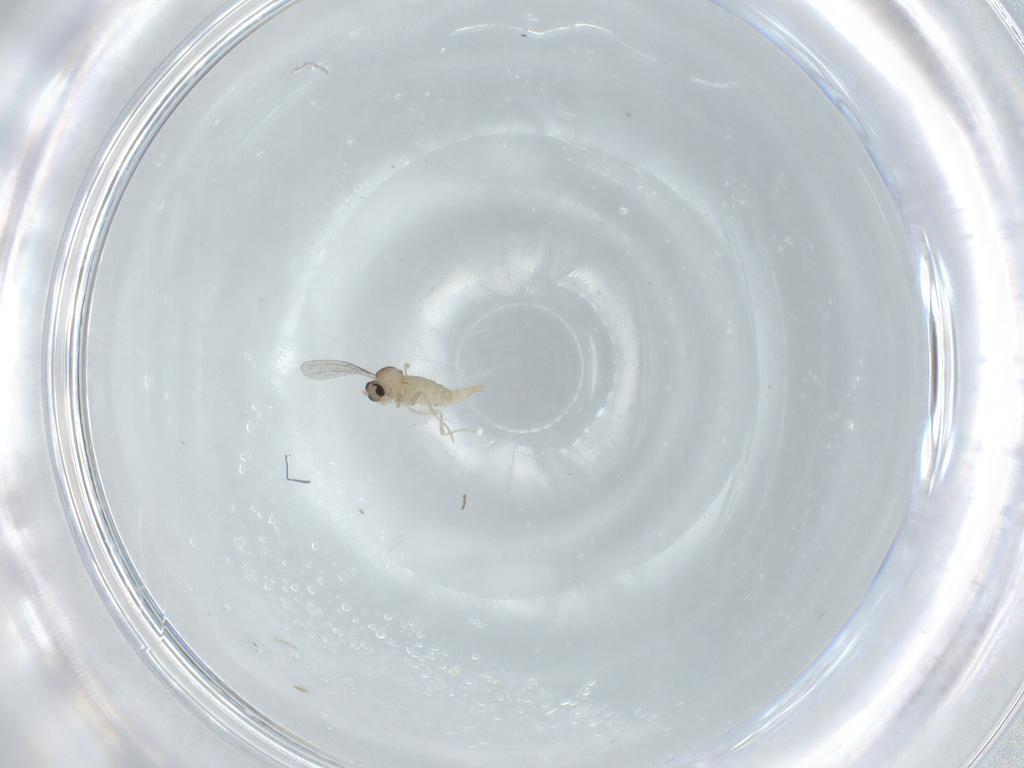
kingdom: Animalia
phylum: Arthropoda
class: Insecta
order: Diptera
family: Cecidomyiidae
